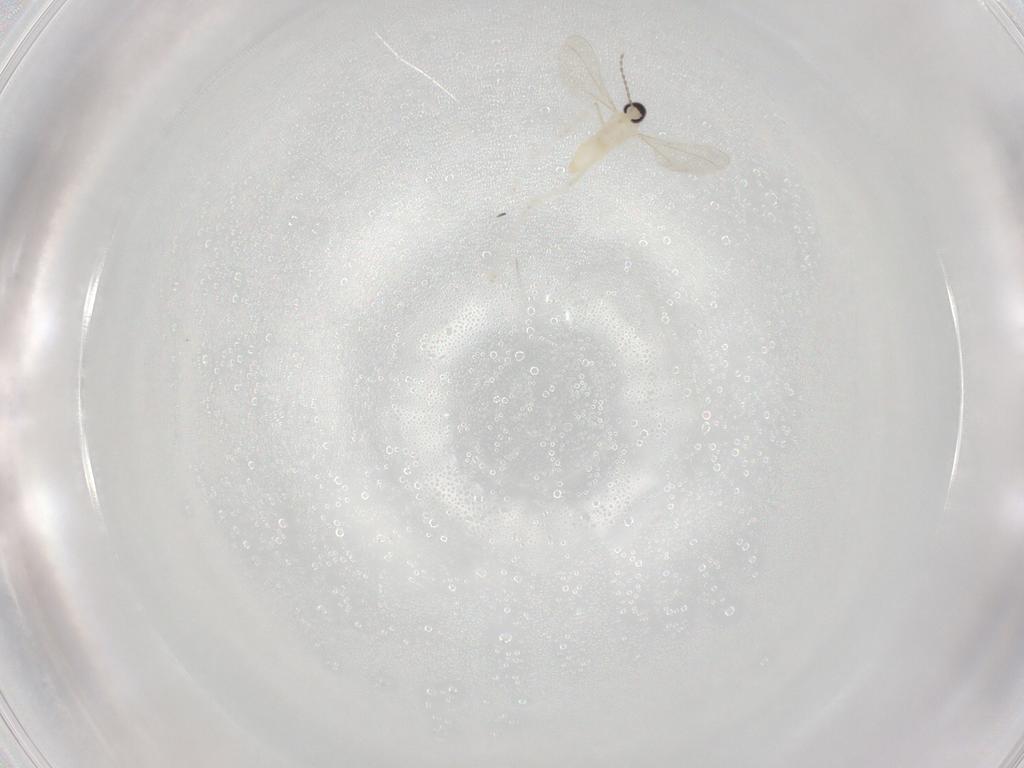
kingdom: Animalia
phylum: Arthropoda
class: Insecta
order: Diptera
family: Cecidomyiidae
